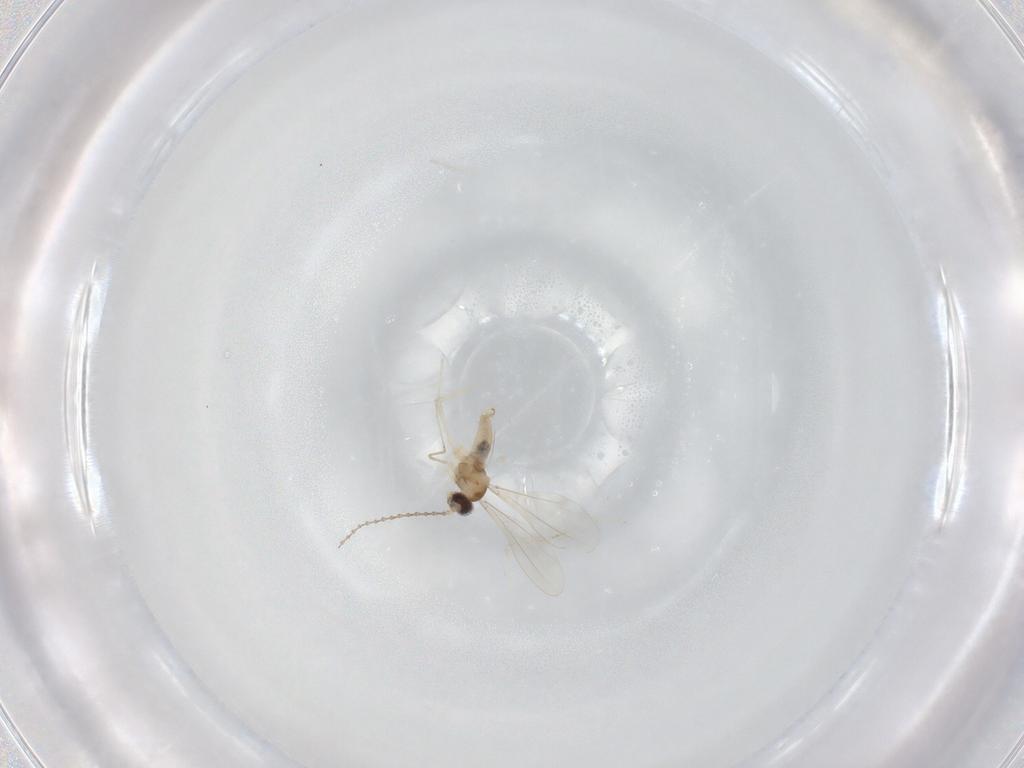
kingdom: Animalia
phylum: Arthropoda
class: Insecta
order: Diptera
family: Cecidomyiidae
